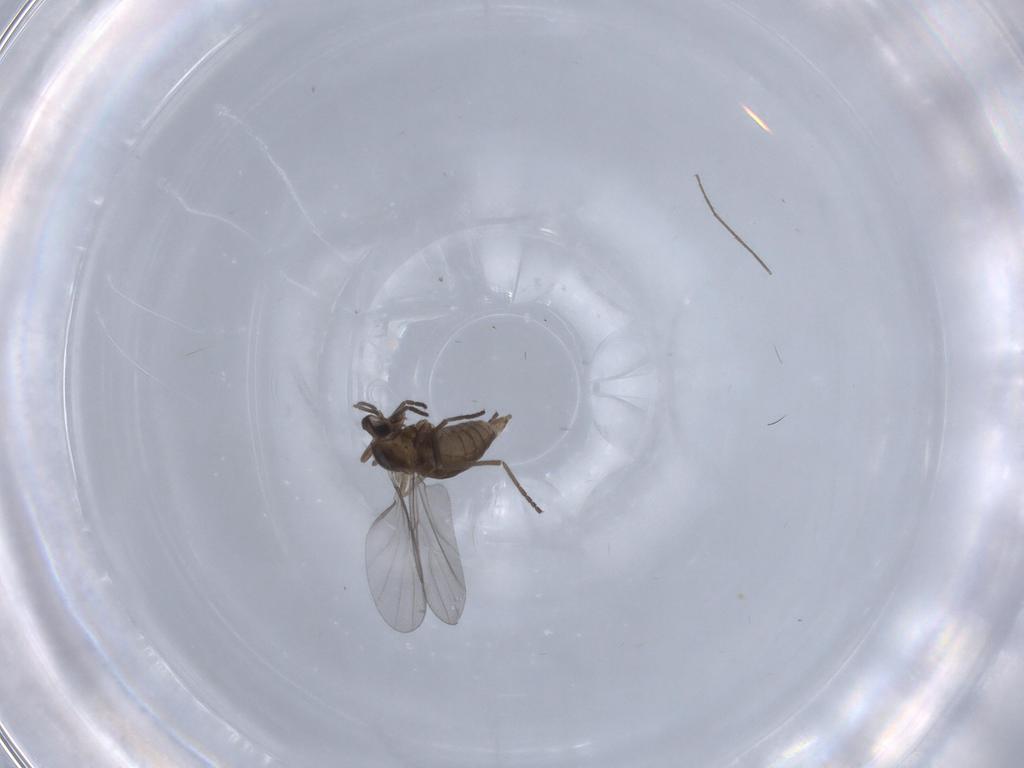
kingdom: Animalia
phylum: Arthropoda
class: Insecta
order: Diptera
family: Cecidomyiidae
